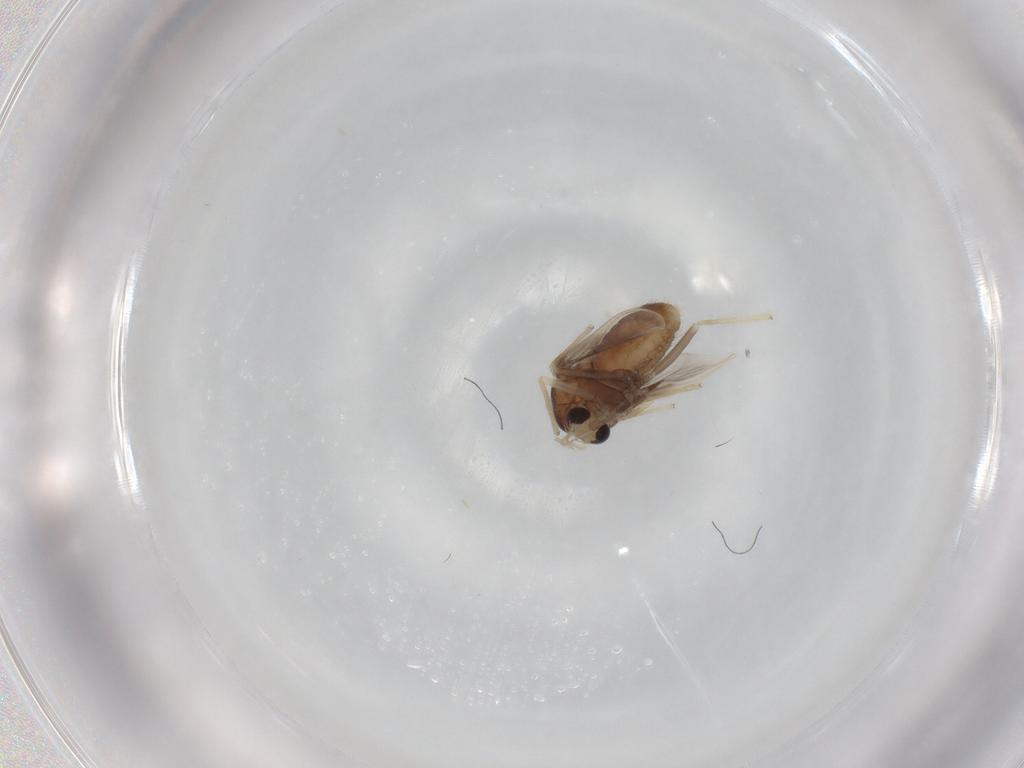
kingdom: Animalia
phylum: Arthropoda
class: Insecta
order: Diptera
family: Chironomidae
